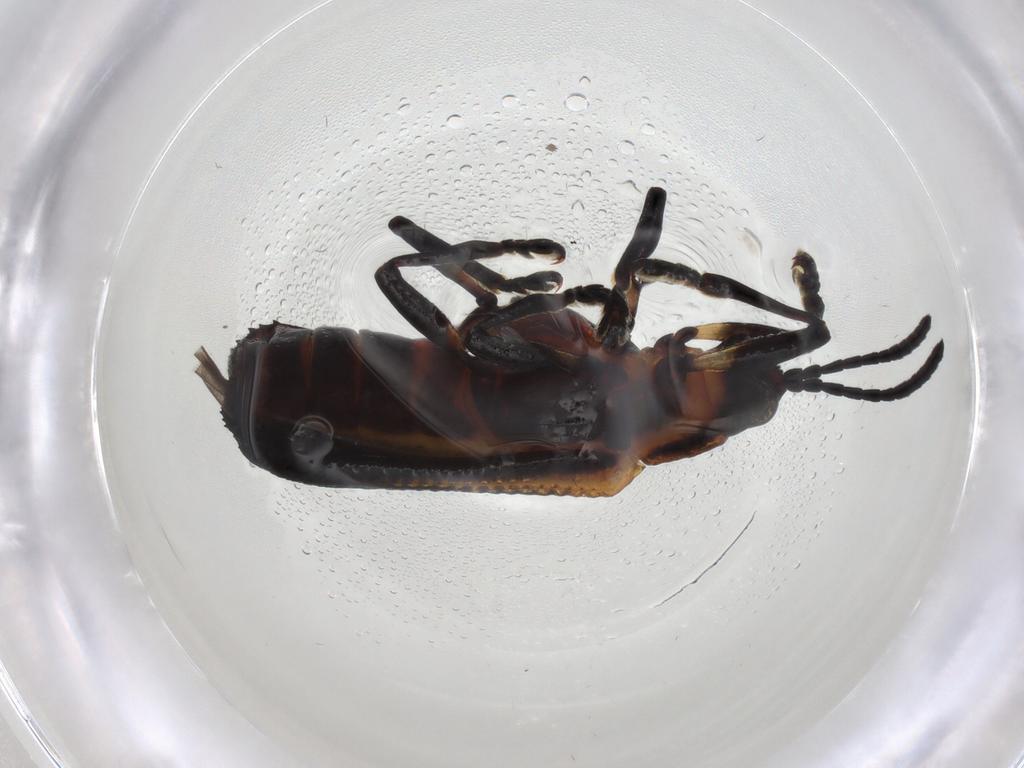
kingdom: Animalia
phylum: Arthropoda
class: Insecta
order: Coleoptera
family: Chrysomelidae
